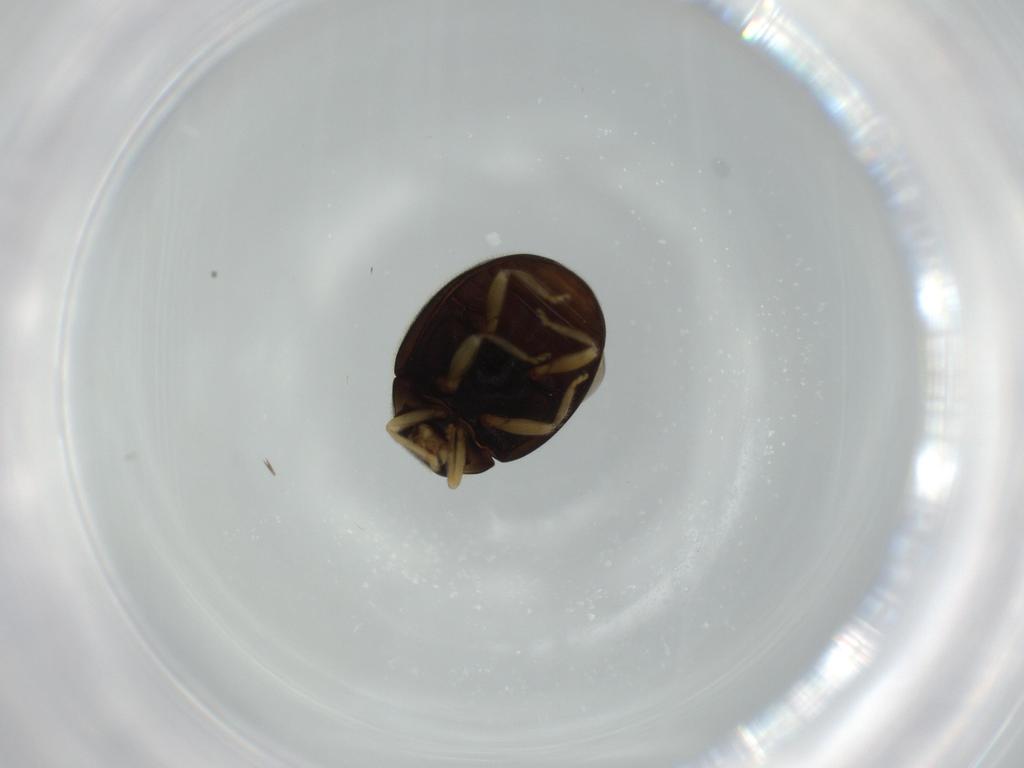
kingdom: Animalia
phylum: Arthropoda
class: Insecta
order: Coleoptera
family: Coccinellidae
